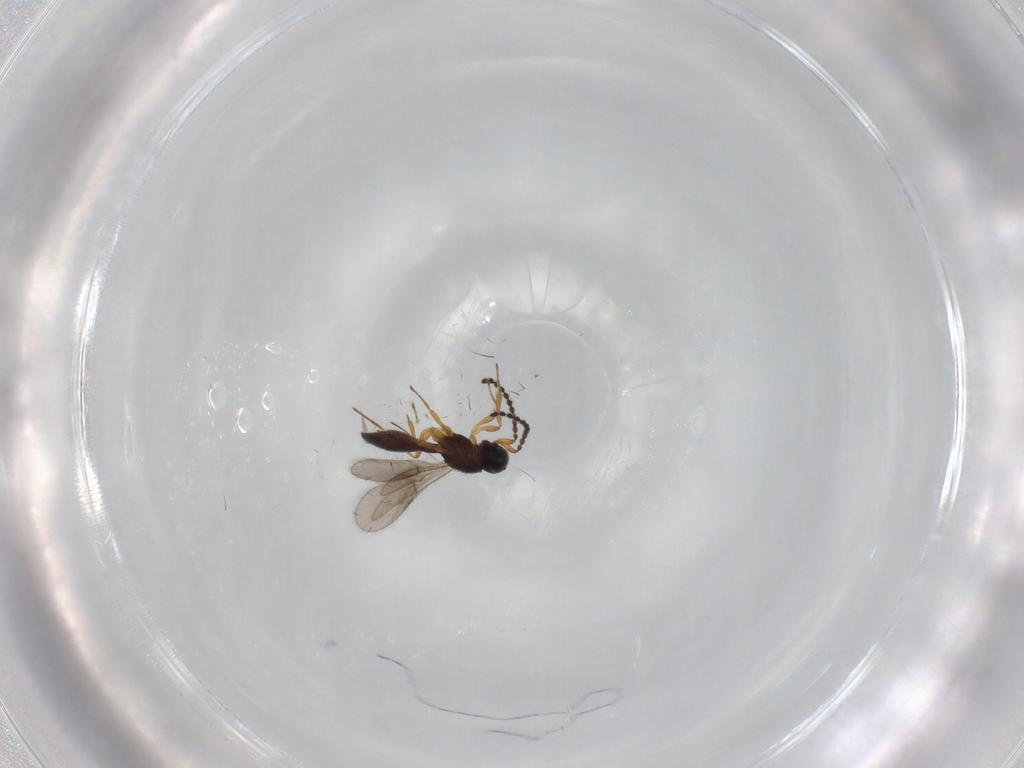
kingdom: Animalia
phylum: Arthropoda
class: Insecta
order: Hymenoptera
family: Scelionidae
